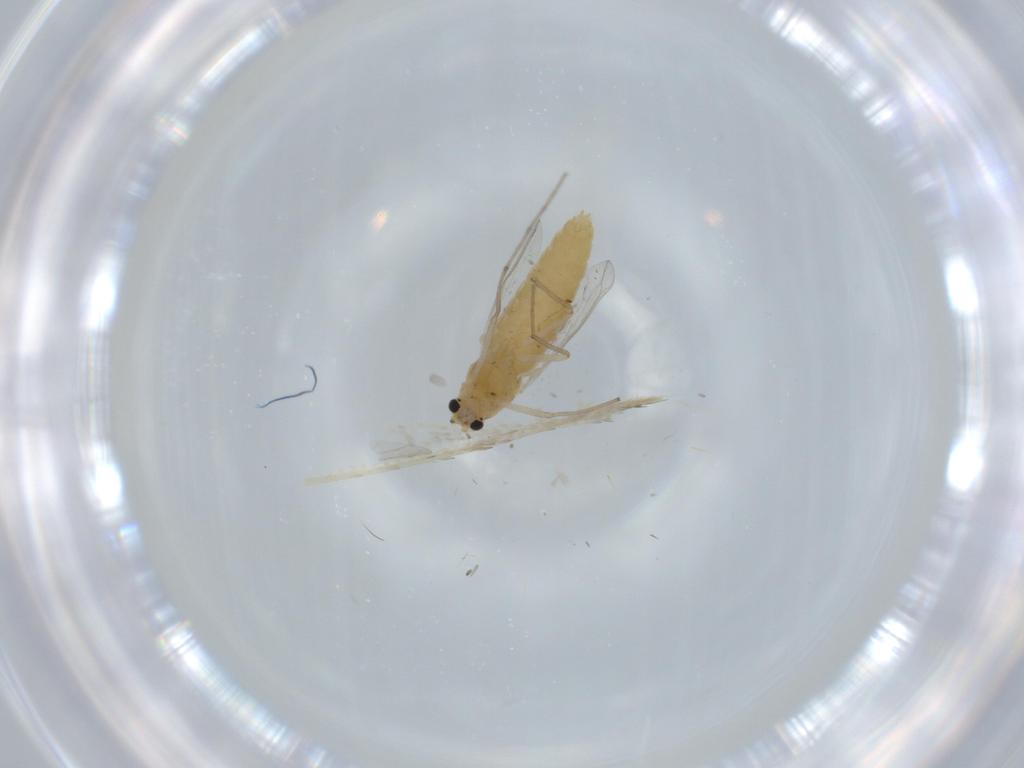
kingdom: Animalia
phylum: Arthropoda
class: Insecta
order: Diptera
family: Chironomidae
